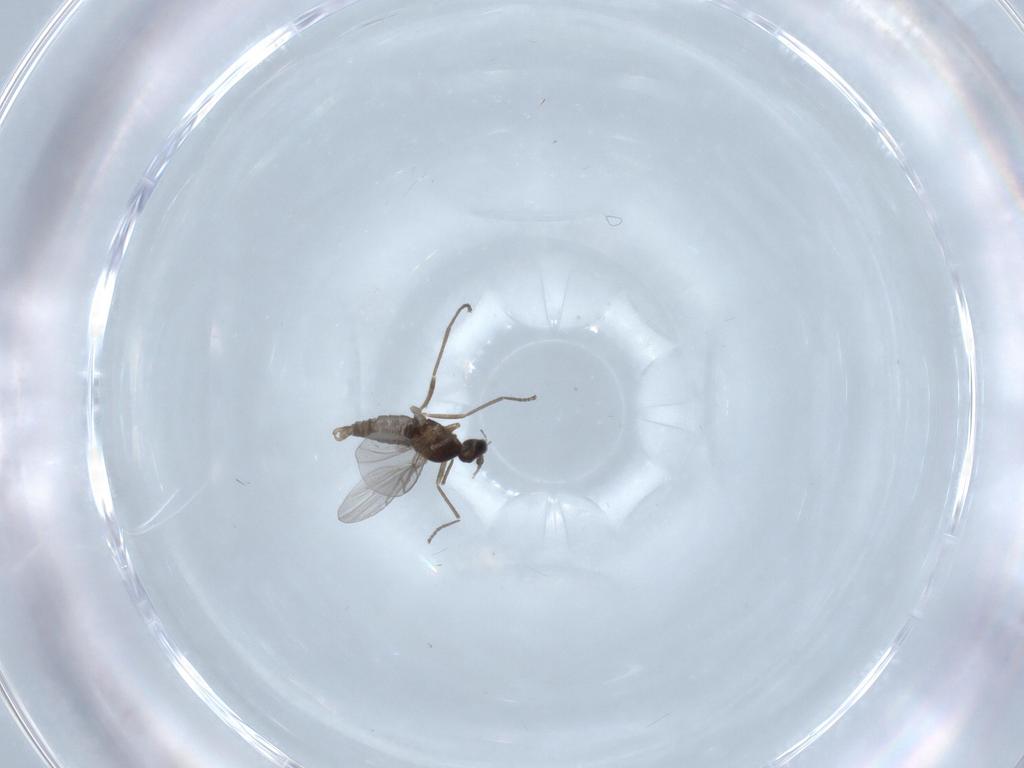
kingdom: Animalia
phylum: Arthropoda
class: Insecta
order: Diptera
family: Cecidomyiidae
